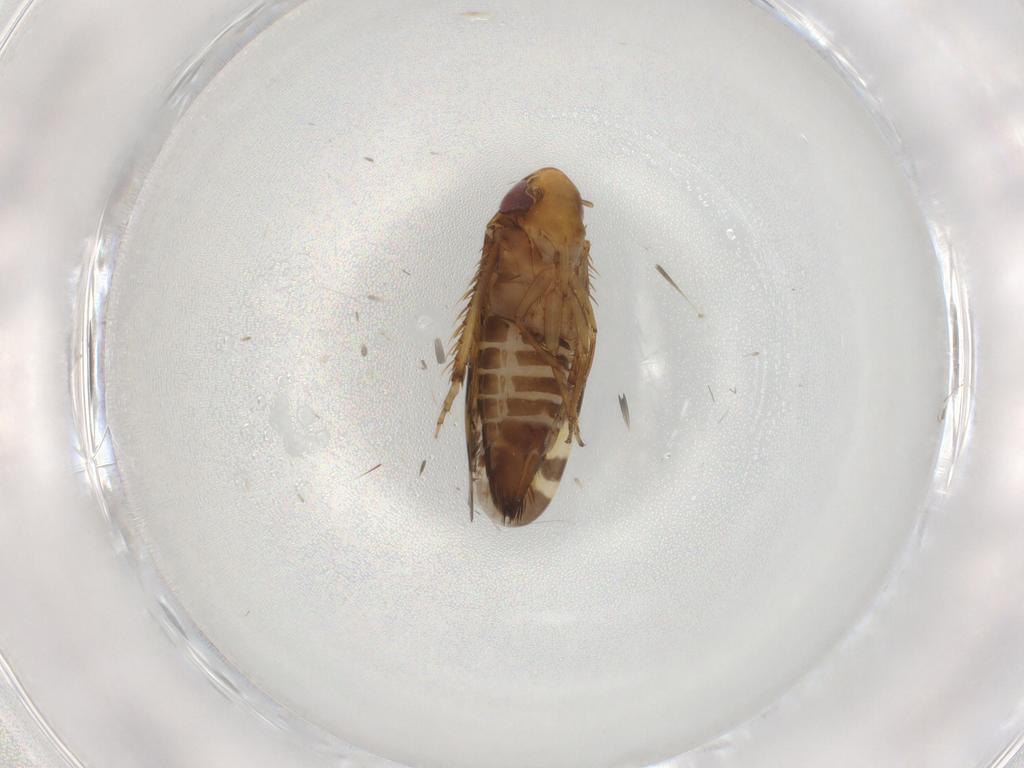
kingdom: Animalia
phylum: Arthropoda
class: Insecta
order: Hemiptera
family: Cicadellidae
